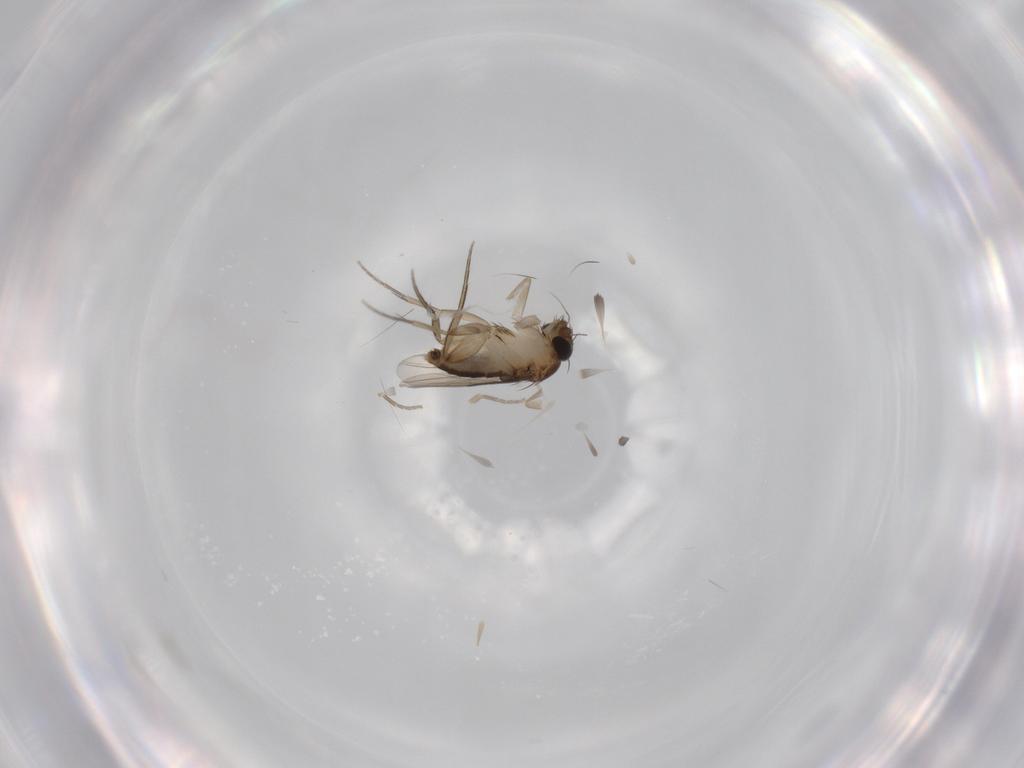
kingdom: Animalia
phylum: Arthropoda
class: Insecta
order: Diptera
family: Phoridae
